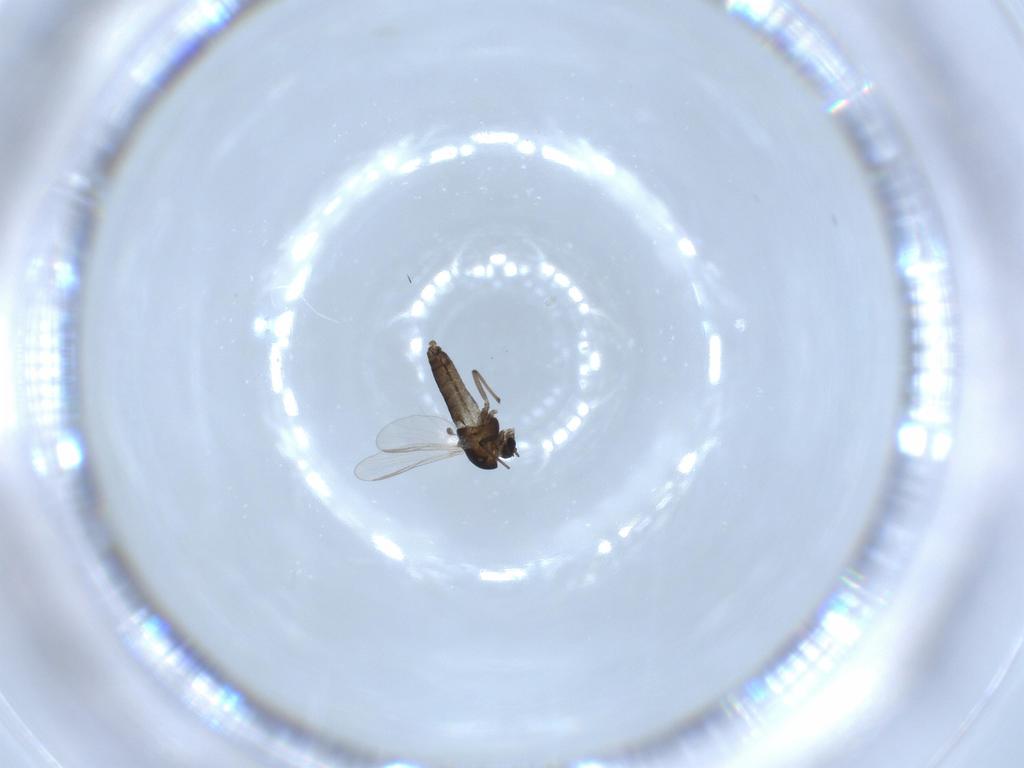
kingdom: Animalia
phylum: Arthropoda
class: Insecta
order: Diptera
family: Chironomidae
